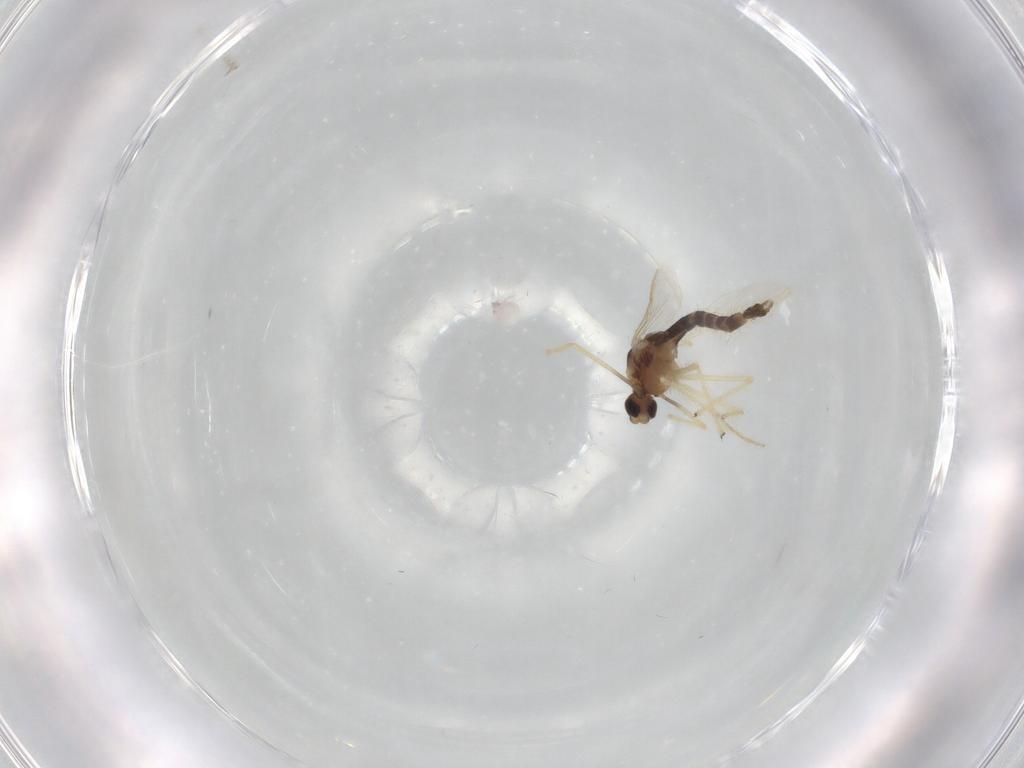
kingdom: Animalia
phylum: Arthropoda
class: Insecta
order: Diptera
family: Chironomidae
